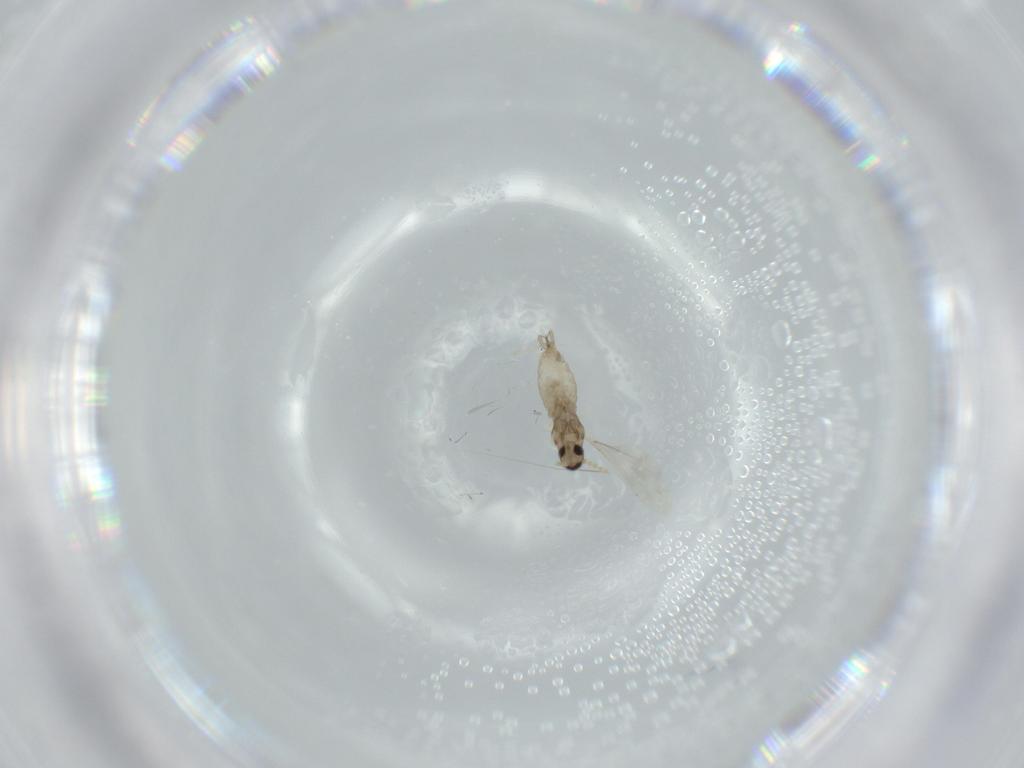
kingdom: Animalia
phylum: Arthropoda
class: Insecta
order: Diptera
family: Cecidomyiidae
